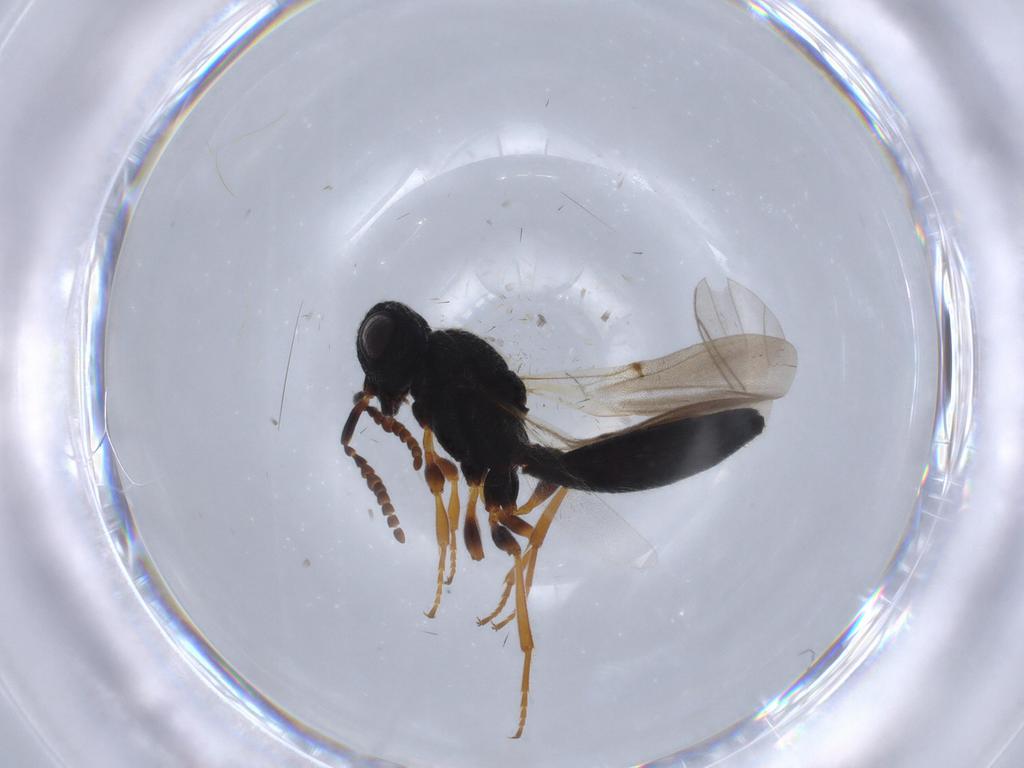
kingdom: Animalia
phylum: Arthropoda
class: Insecta
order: Hymenoptera
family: Scelionidae
